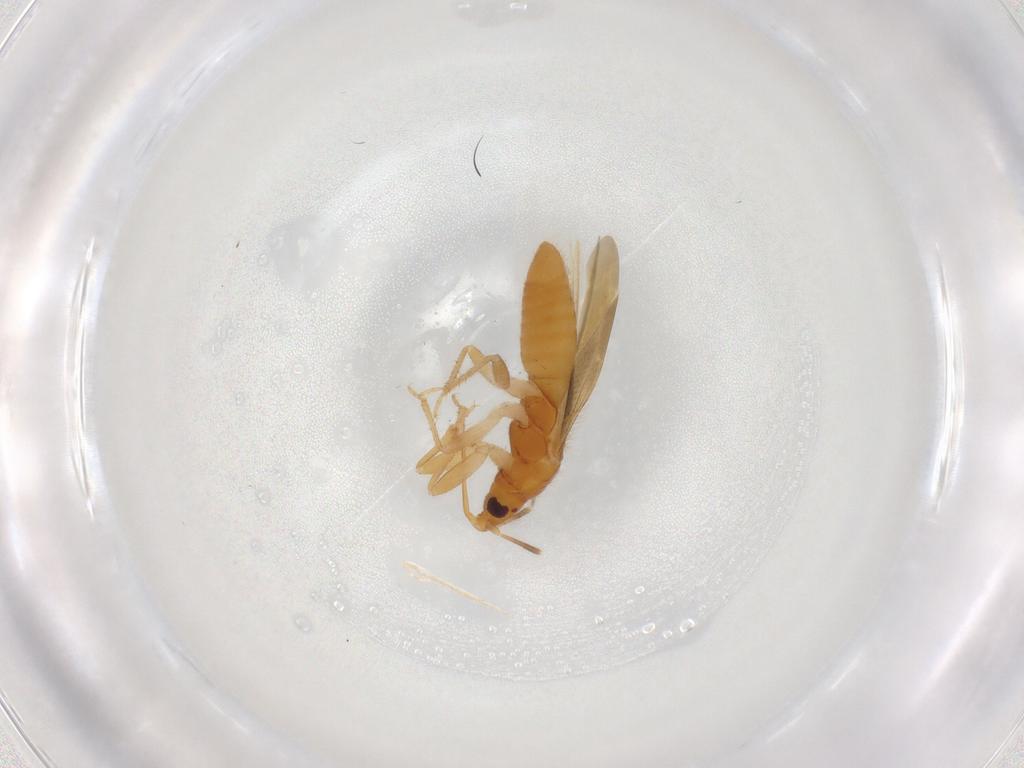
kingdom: Animalia
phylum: Arthropoda
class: Insecta
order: Hemiptera
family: Lasiochilidae
